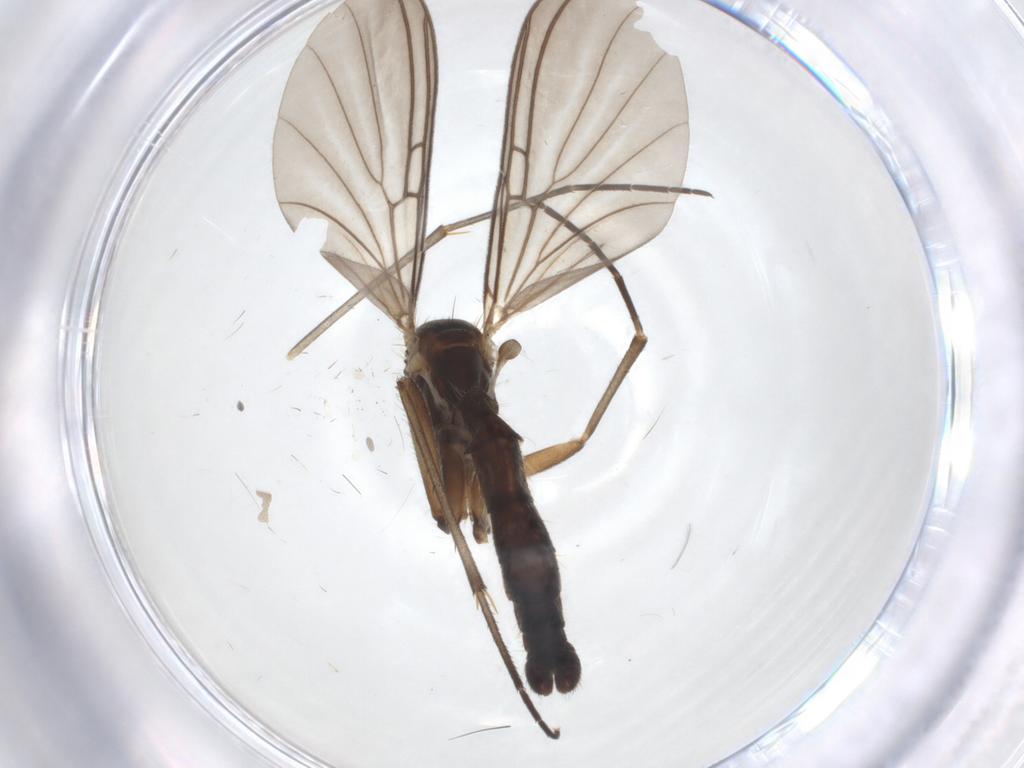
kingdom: Animalia
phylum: Arthropoda
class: Insecta
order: Diptera
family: Mycetophilidae
